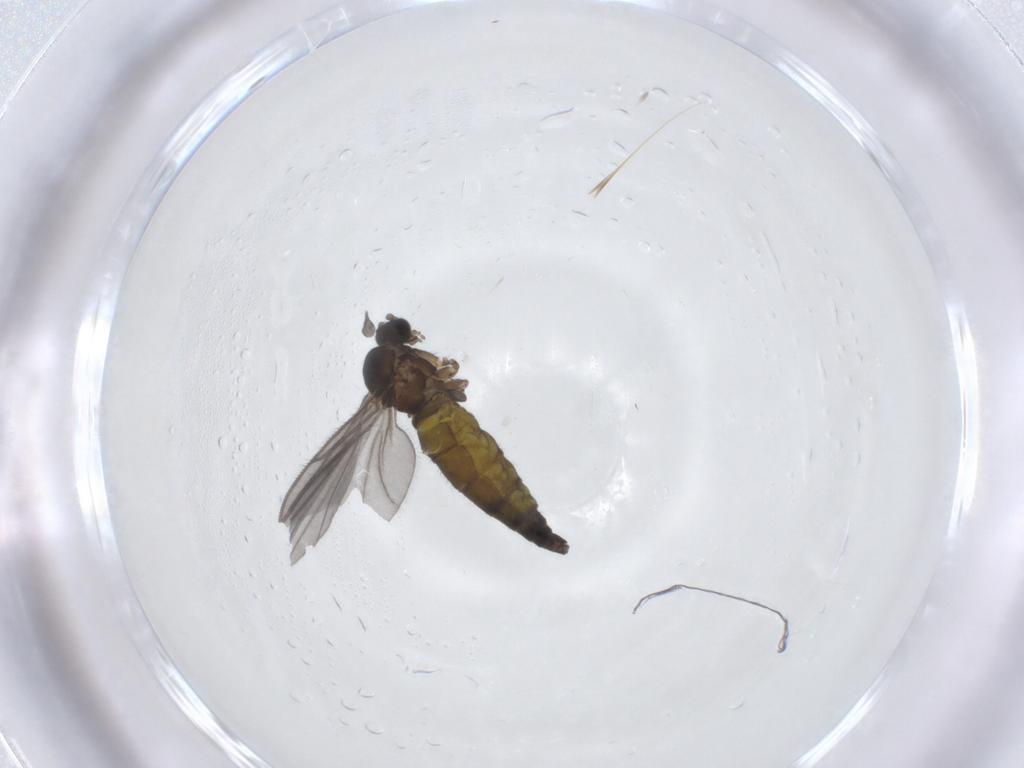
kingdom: Animalia
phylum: Arthropoda
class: Insecta
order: Diptera
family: Sciaridae
